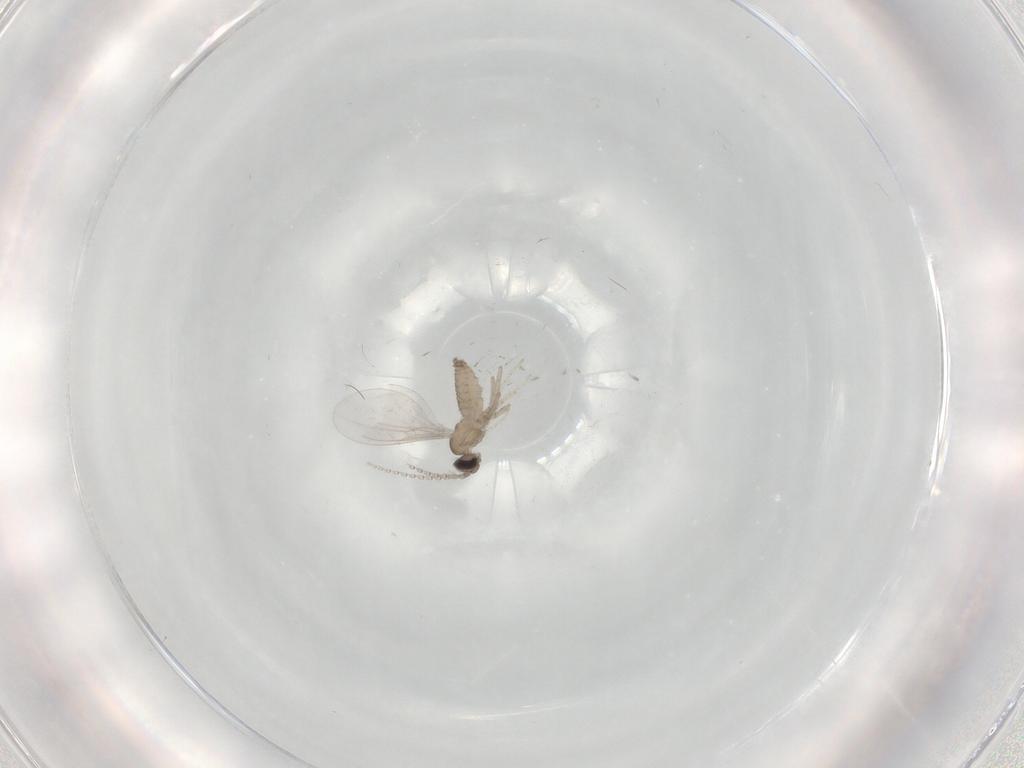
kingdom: Animalia
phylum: Arthropoda
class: Insecta
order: Diptera
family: Cecidomyiidae
